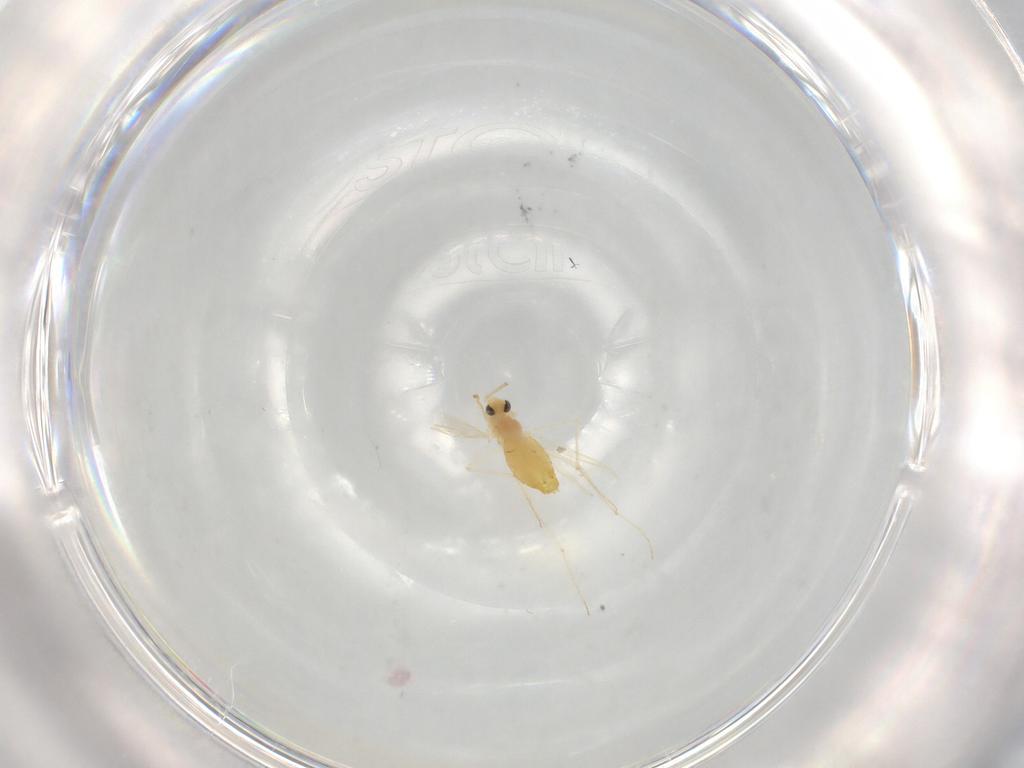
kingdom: Animalia
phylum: Arthropoda
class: Insecta
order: Diptera
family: Chironomidae
